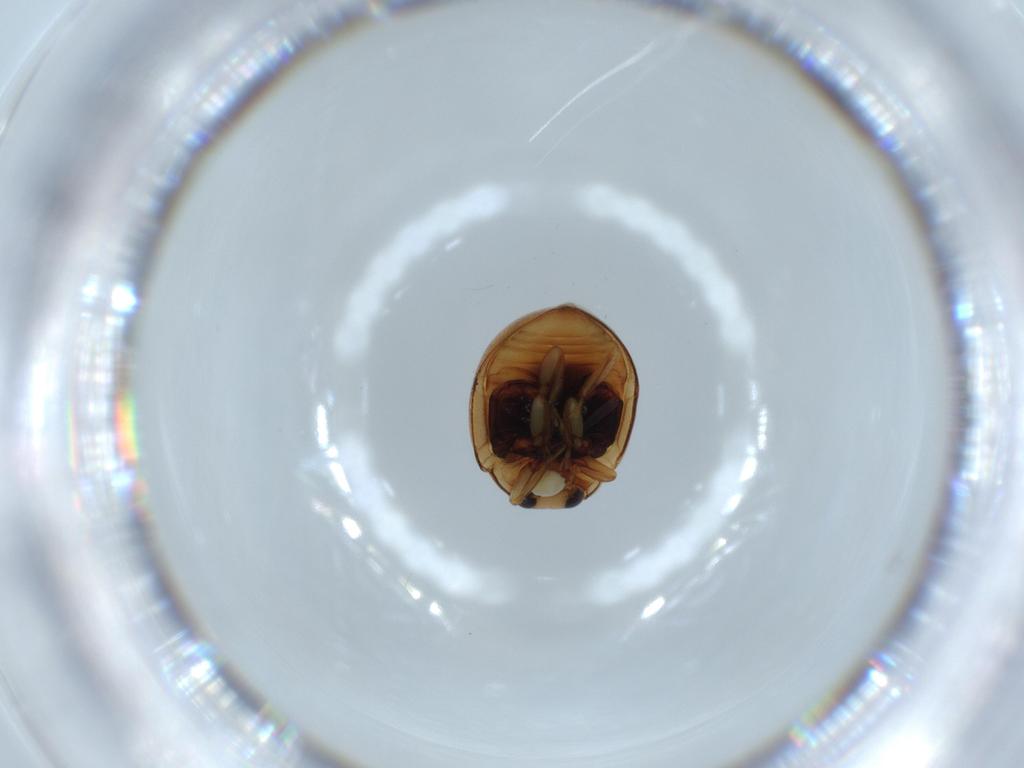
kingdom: Animalia
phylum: Arthropoda
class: Insecta
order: Coleoptera
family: Coccinellidae
